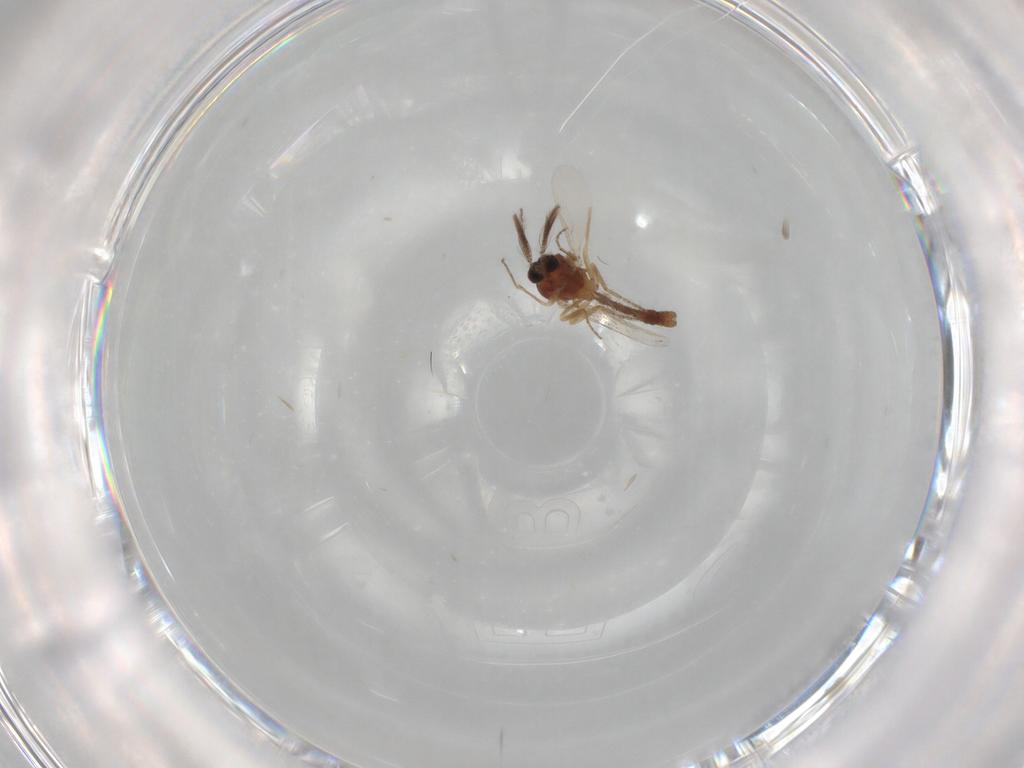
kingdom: Animalia
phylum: Arthropoda
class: Insecta
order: Diptera
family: Ceratopogonidae
